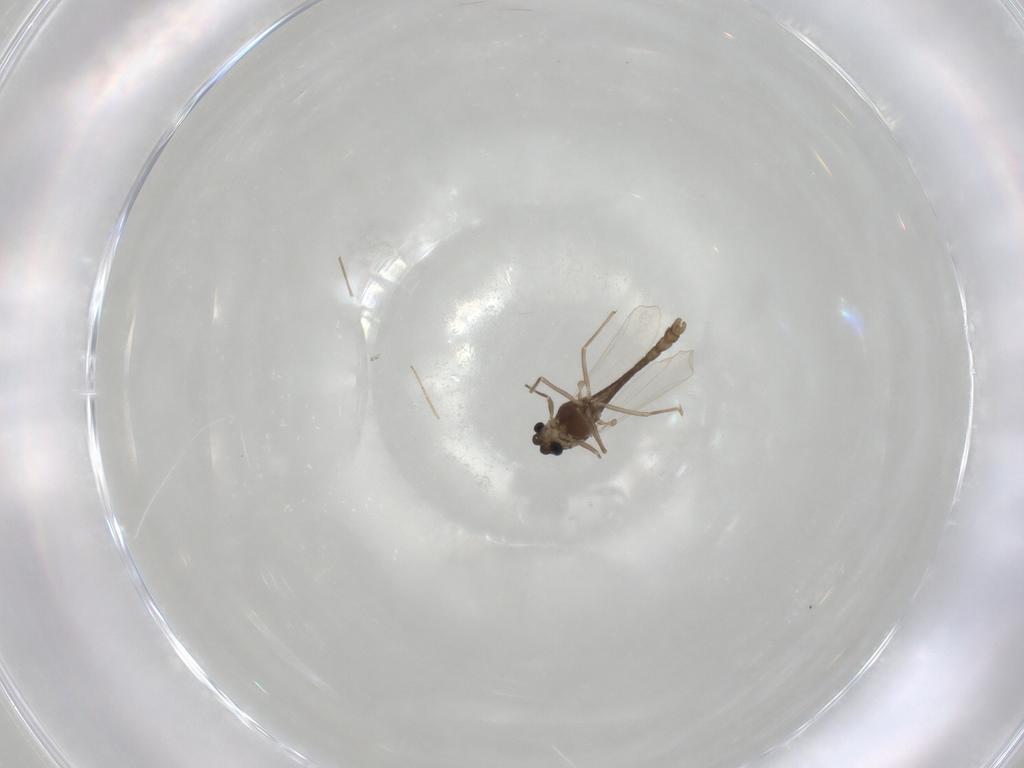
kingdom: Animalia
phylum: Arthropoda
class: Insecta
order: Diptera
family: Chironomidae
